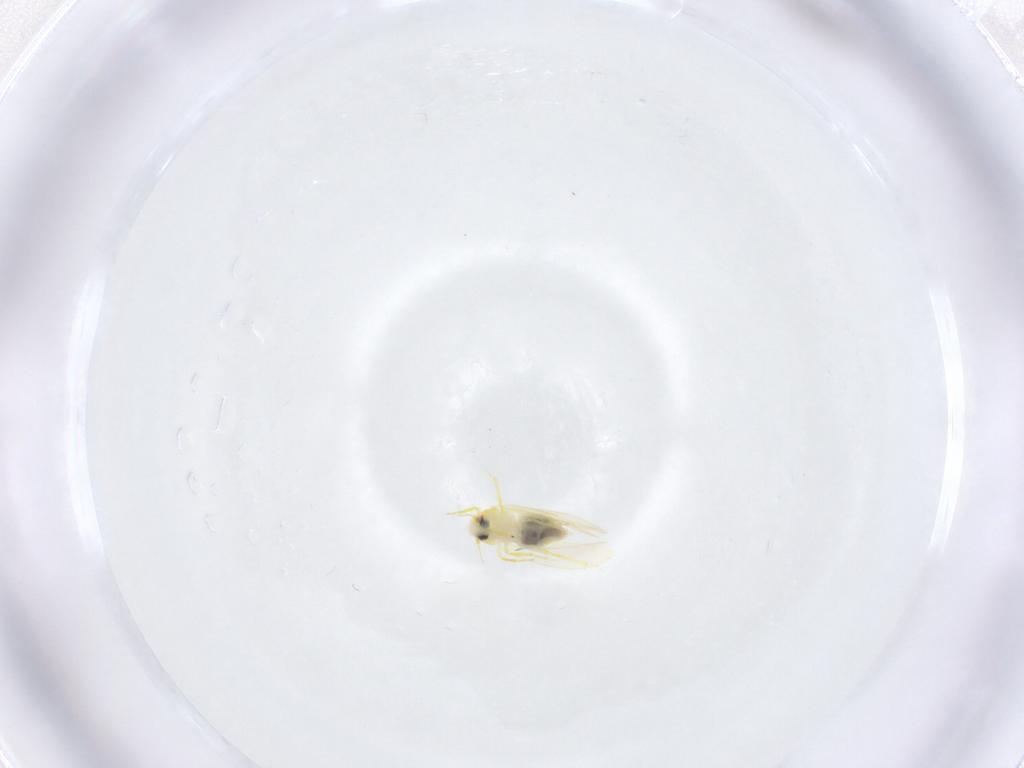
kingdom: Animalia
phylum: Arthropoda
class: Insecta
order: Hemiptera
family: Aleyrodidae
